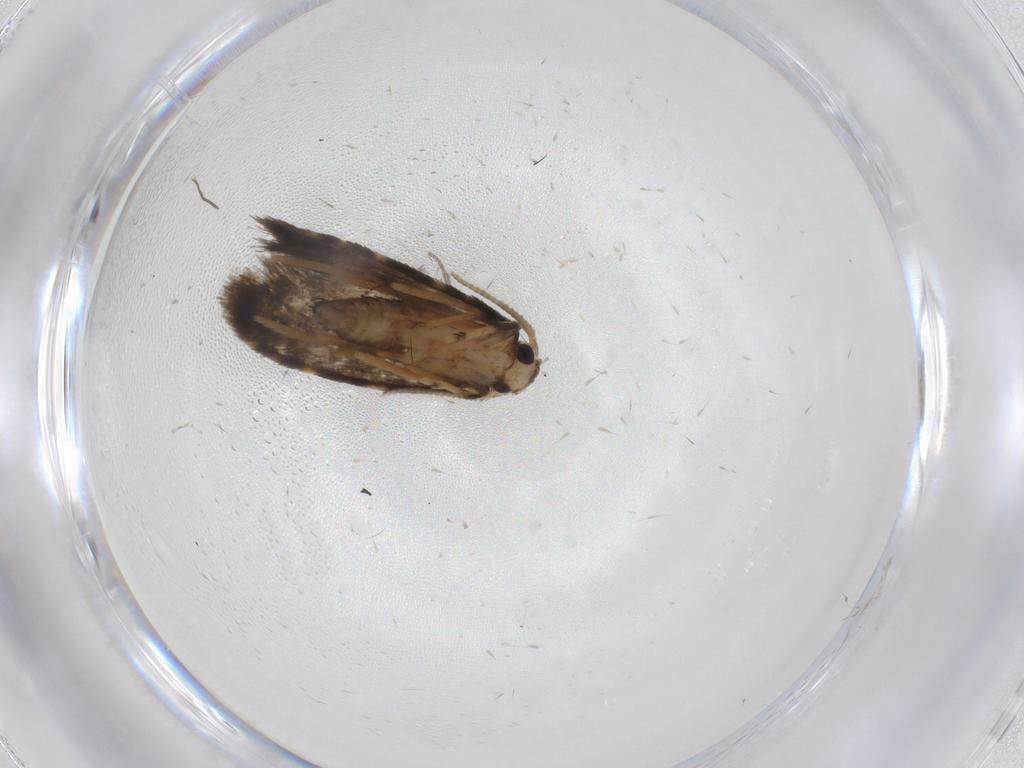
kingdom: Animalia
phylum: Arthropoda
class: Insecta
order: Lepidoptera
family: Psychidae
